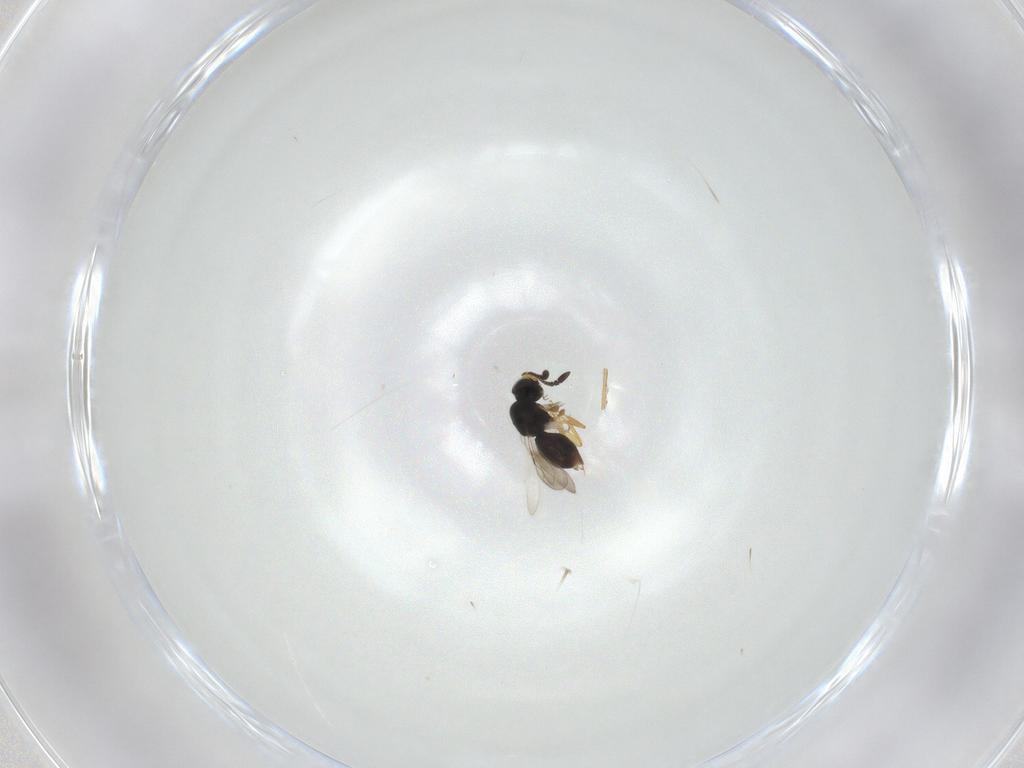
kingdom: Animalia
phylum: Arthropoda
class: Insecta
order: Hymenoptera
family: Ceraphronidae
